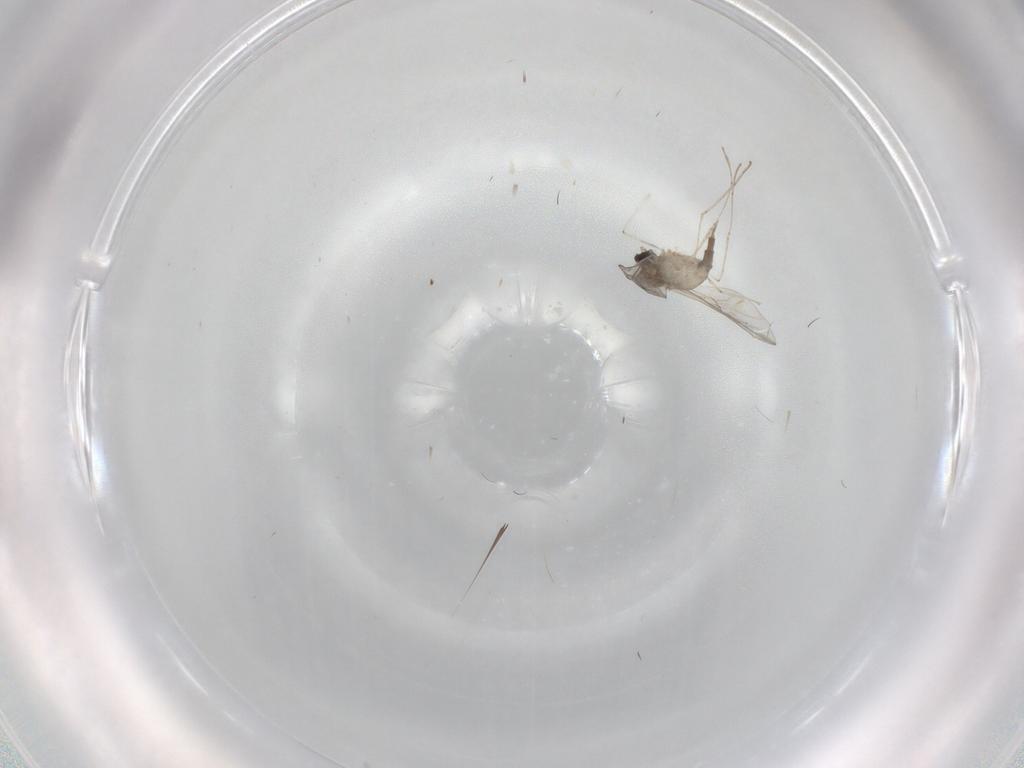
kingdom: Animalia
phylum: Arthropoda
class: Insecta
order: Diptera
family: Cecidomyiidae
